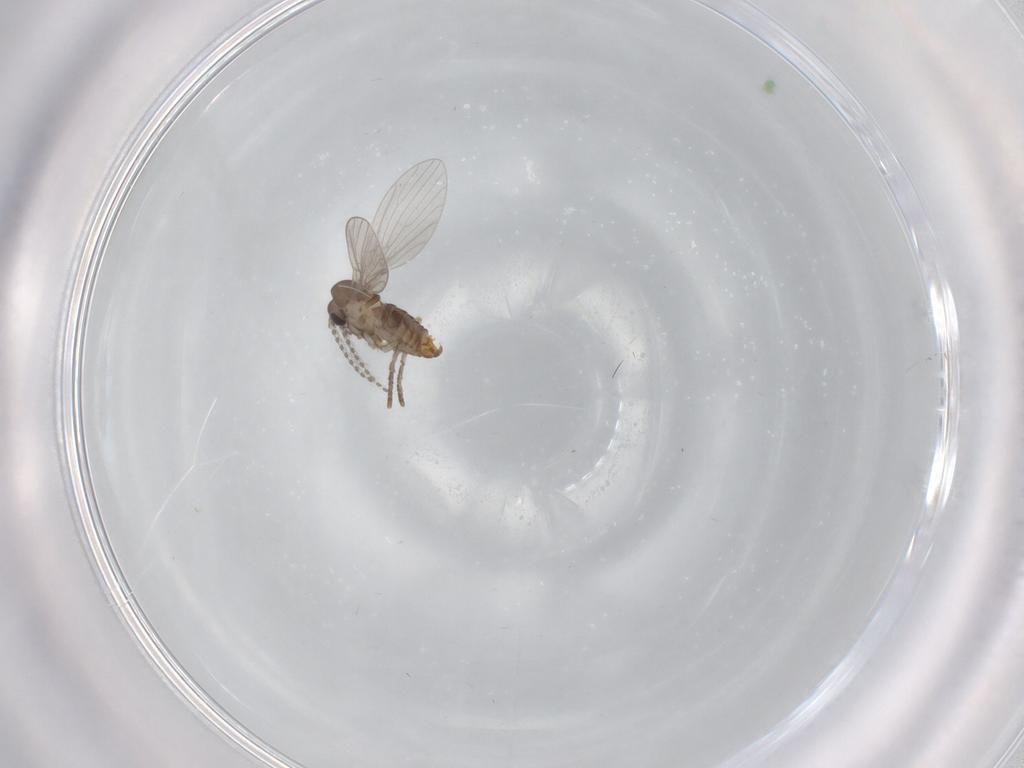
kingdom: Animalia
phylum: Arthropoda
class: Insecta
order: Diptera
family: Cecidomyiidae
